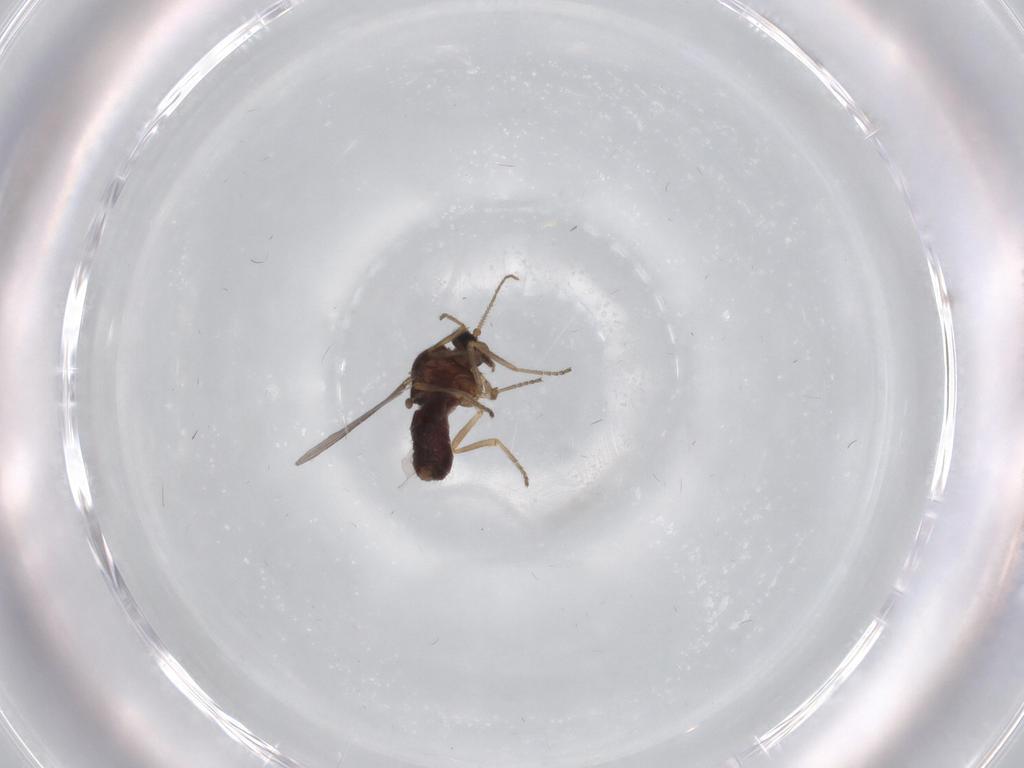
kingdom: Animalia
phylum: Arthropoda
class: Insecta
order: Diptera
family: Ceratopogonidae
